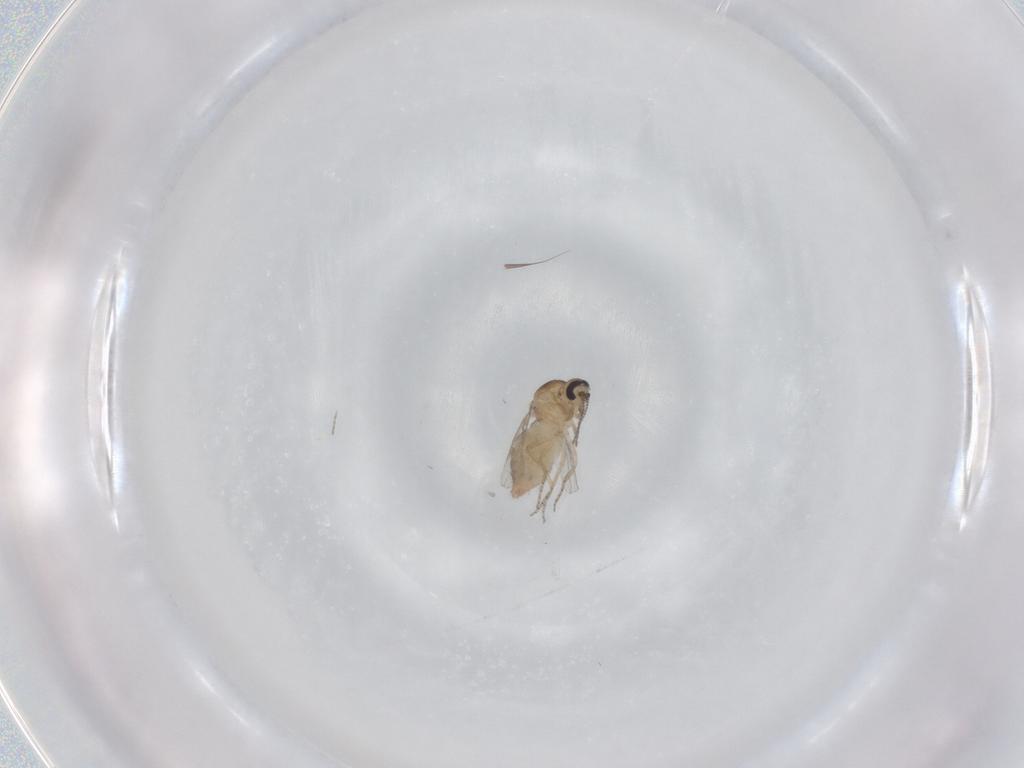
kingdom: Animalia
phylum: Arthropoda
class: Insecta
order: Diptera
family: Ceratopogonidae
